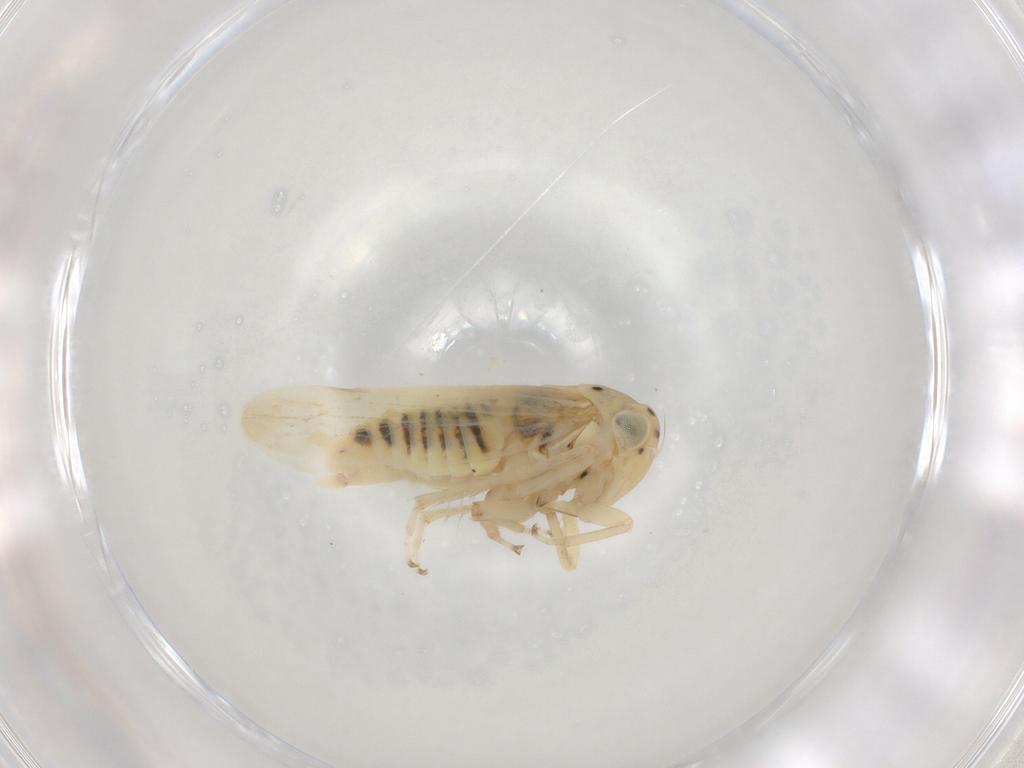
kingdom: Animalia
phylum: Arthropoda
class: Insecta
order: Hemiptera
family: Cicadellidae
